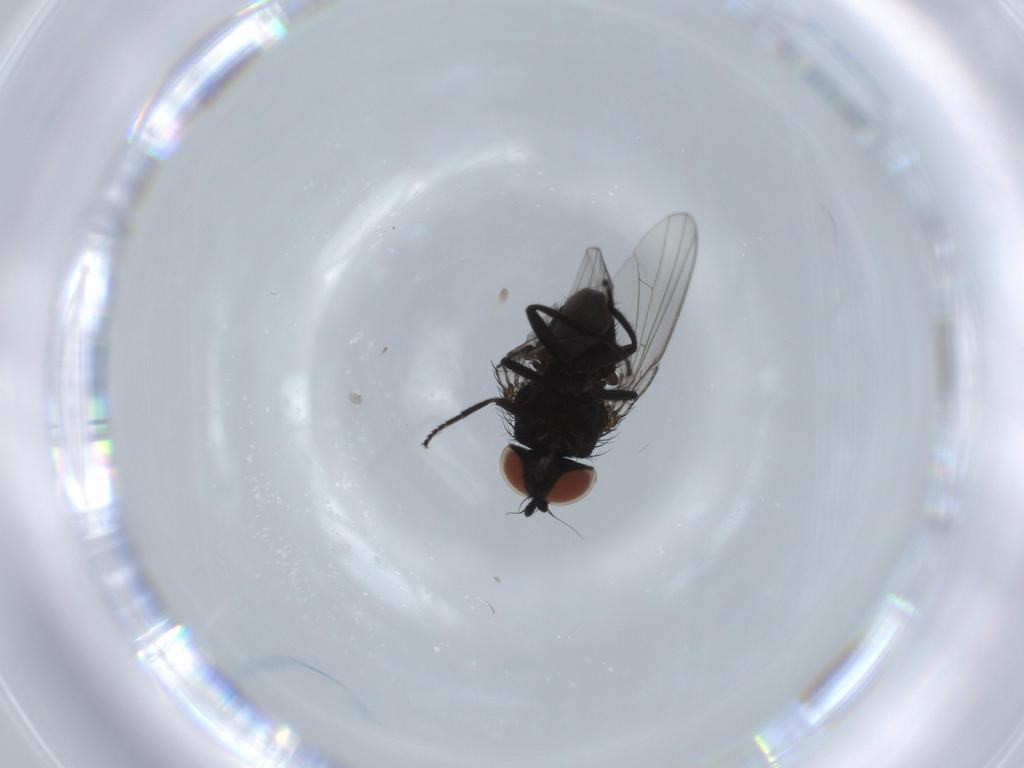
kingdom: Animalia
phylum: Arthropoda
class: Insecta
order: Diptera
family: Milichiidae
